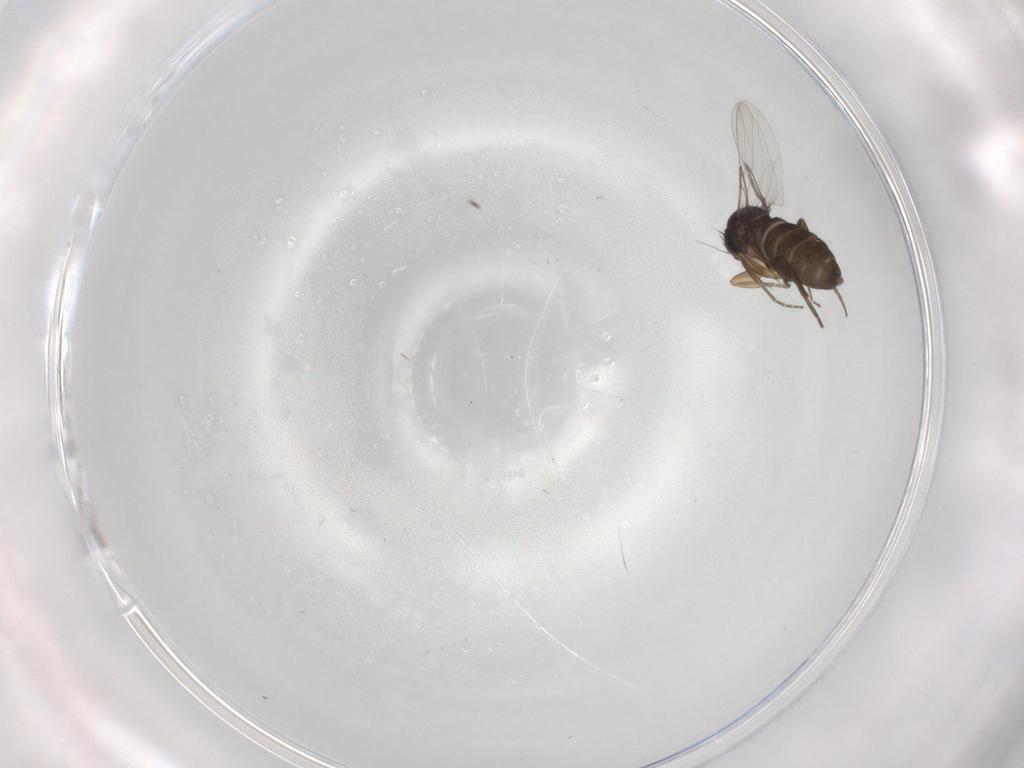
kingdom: Animalia
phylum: Arthropoda
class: Insecta
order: Diptera
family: Phoridae
